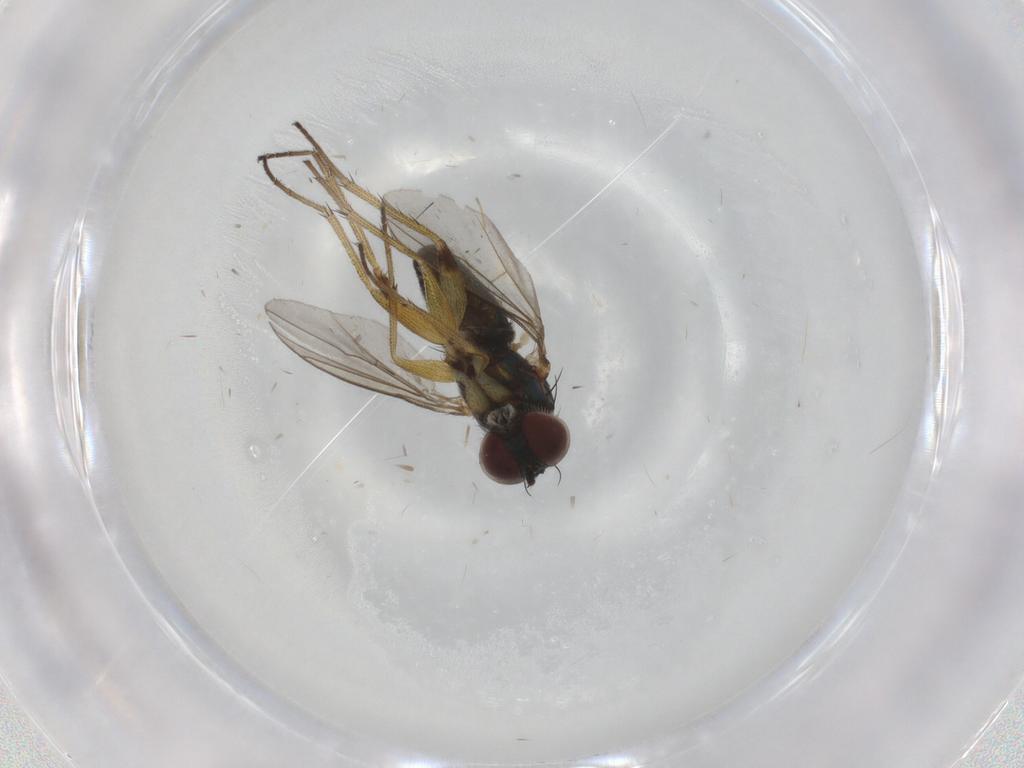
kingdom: Animalia
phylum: Arthropoda
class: Insecta
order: Diptera
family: Dolichopodidae
